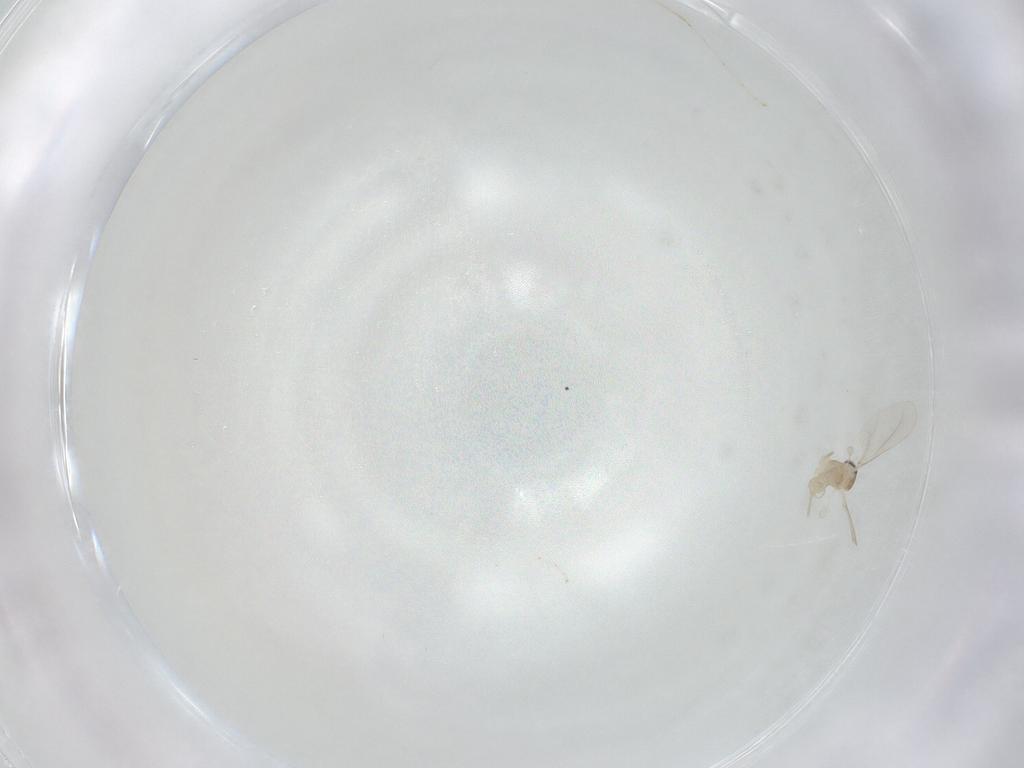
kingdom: Animalia
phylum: Arthropoda
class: Insecta
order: Diptera
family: Cecidomyiidae
